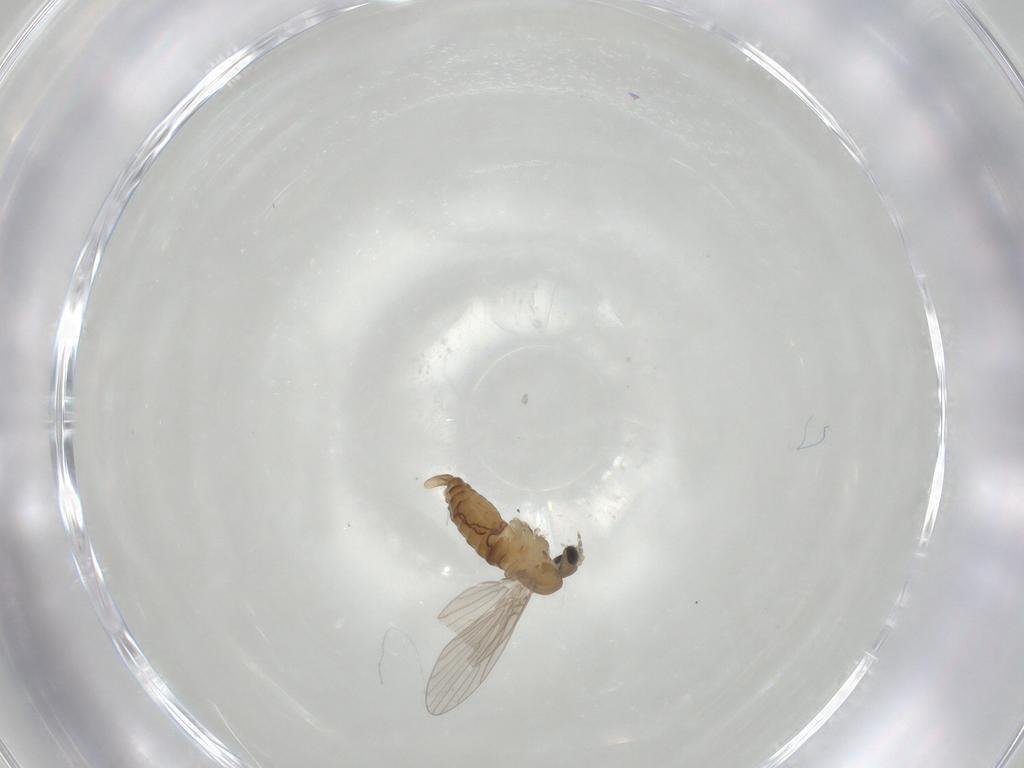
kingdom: Animalia
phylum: Arthropoda
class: Insecta
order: Diptera
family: Psychodidae
